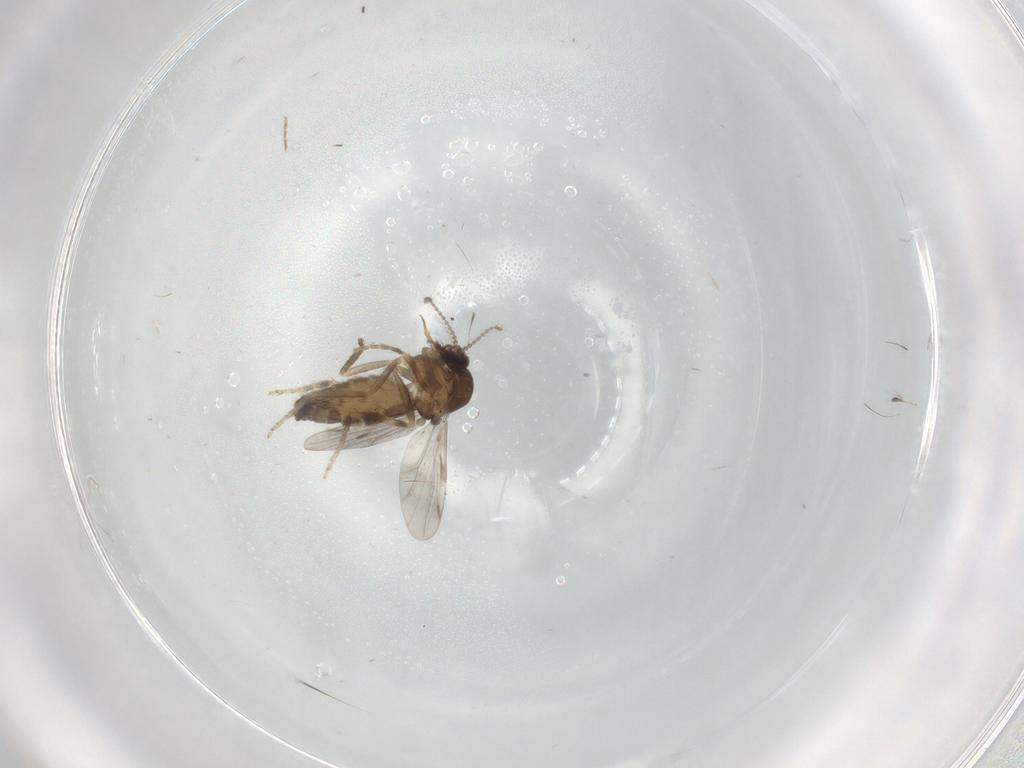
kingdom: Animalia
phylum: Arthropoda
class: Insecta
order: Diptera
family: Ceratopogonidae
